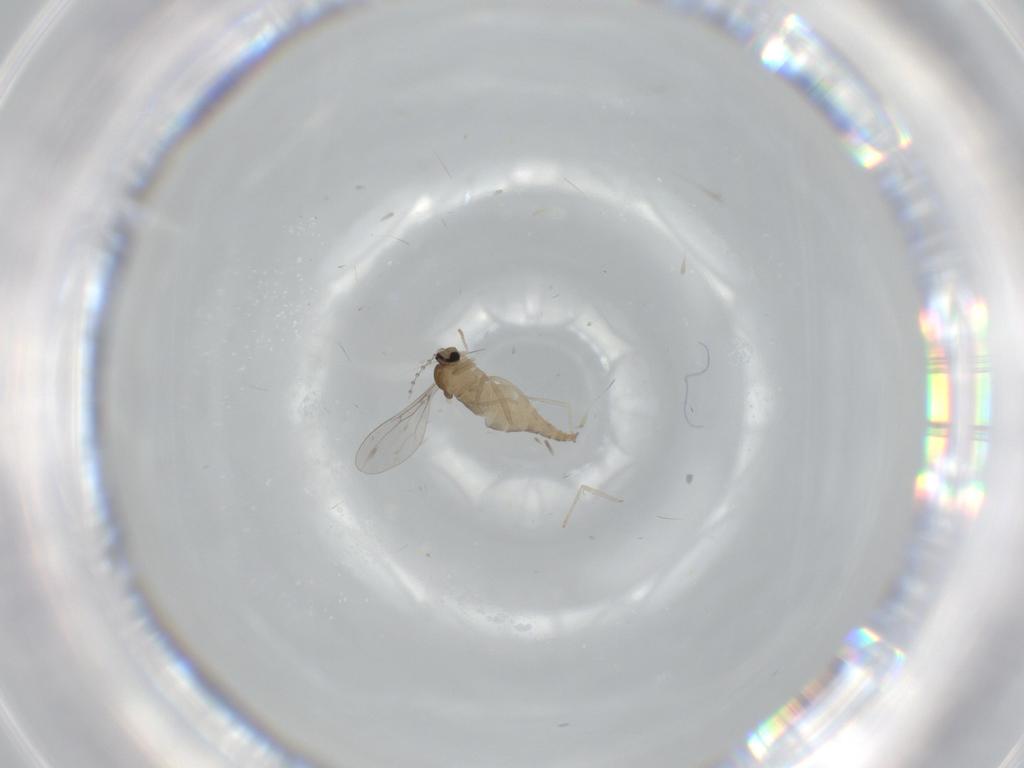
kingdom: Animalia
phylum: Arthropoda
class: Insecta
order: Diptera
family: Cecidomyiidae
